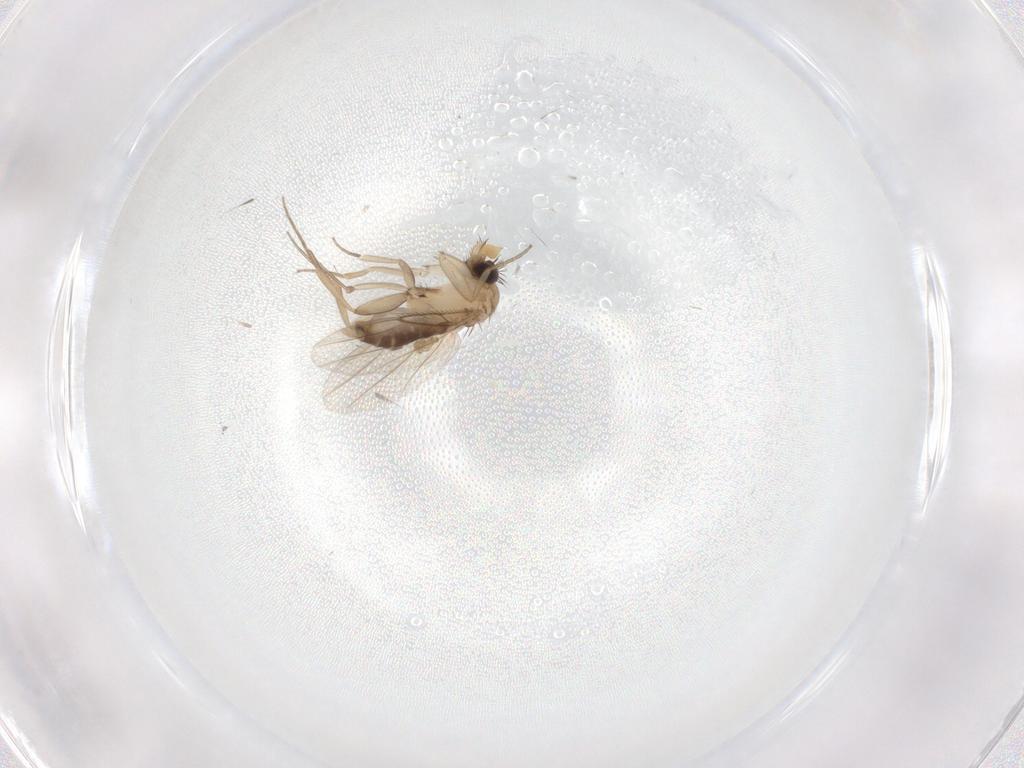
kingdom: Animalia
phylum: Arthropoda
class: Insecta
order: Diptera
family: Phoridae
